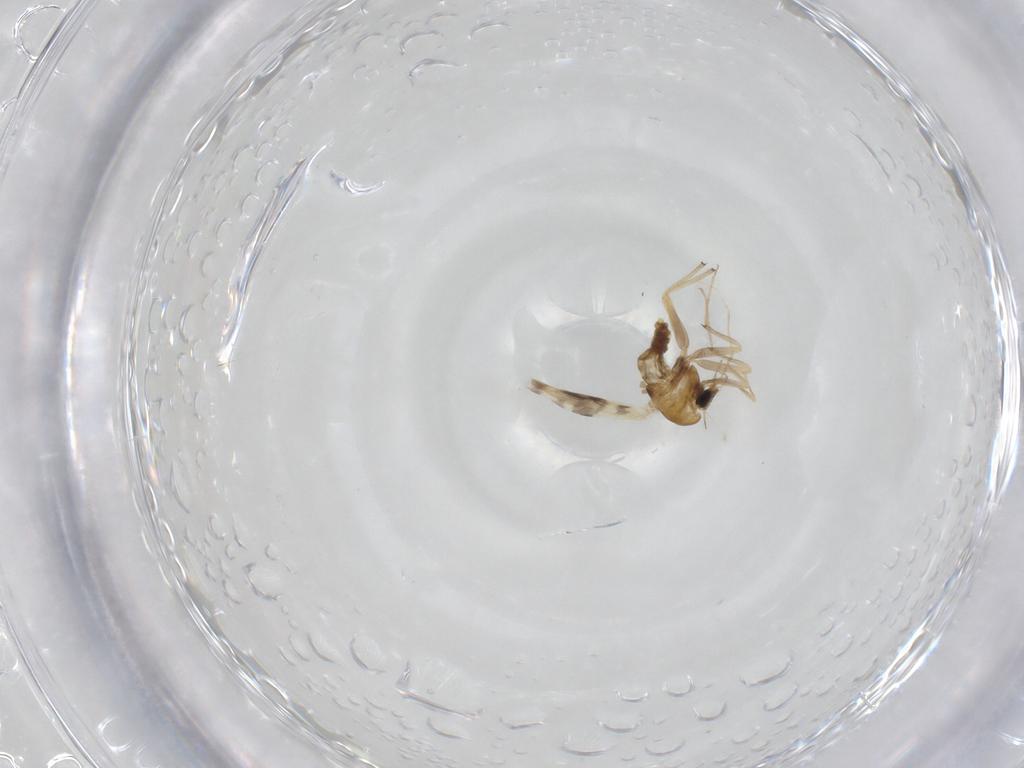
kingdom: Animalia
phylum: Arthropoda
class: Insecta
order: Diptera
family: Chironomidae
